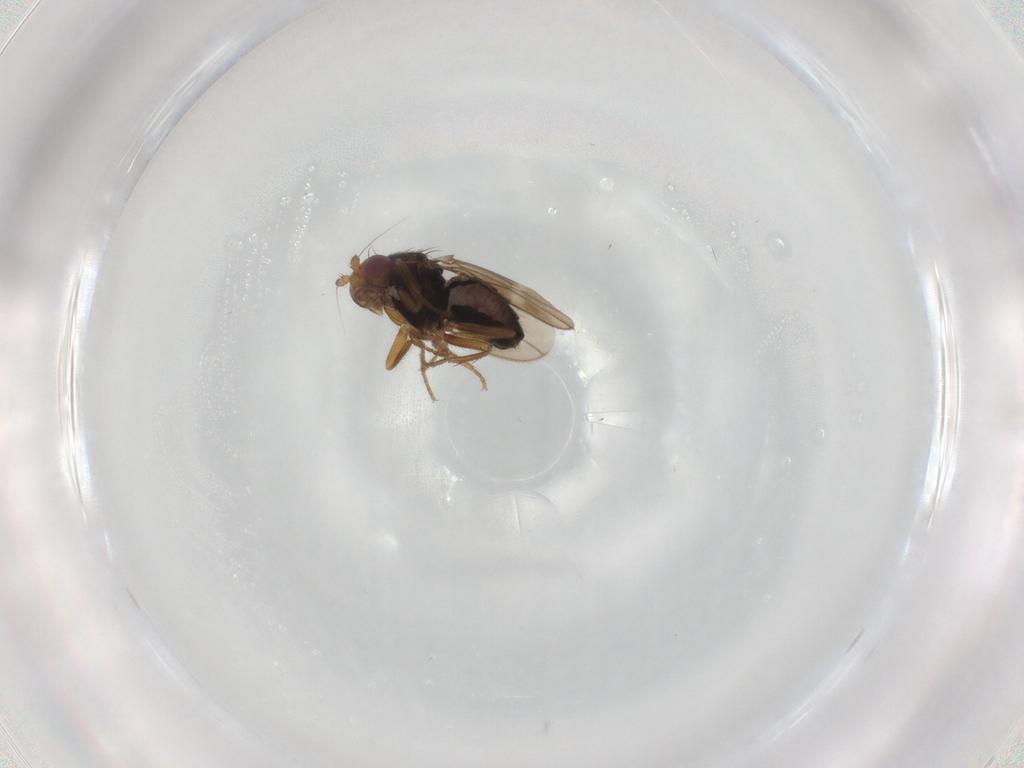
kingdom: Animalia
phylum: Arthropoda
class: Insecta
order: Diptera
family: Sphaeroceridae
